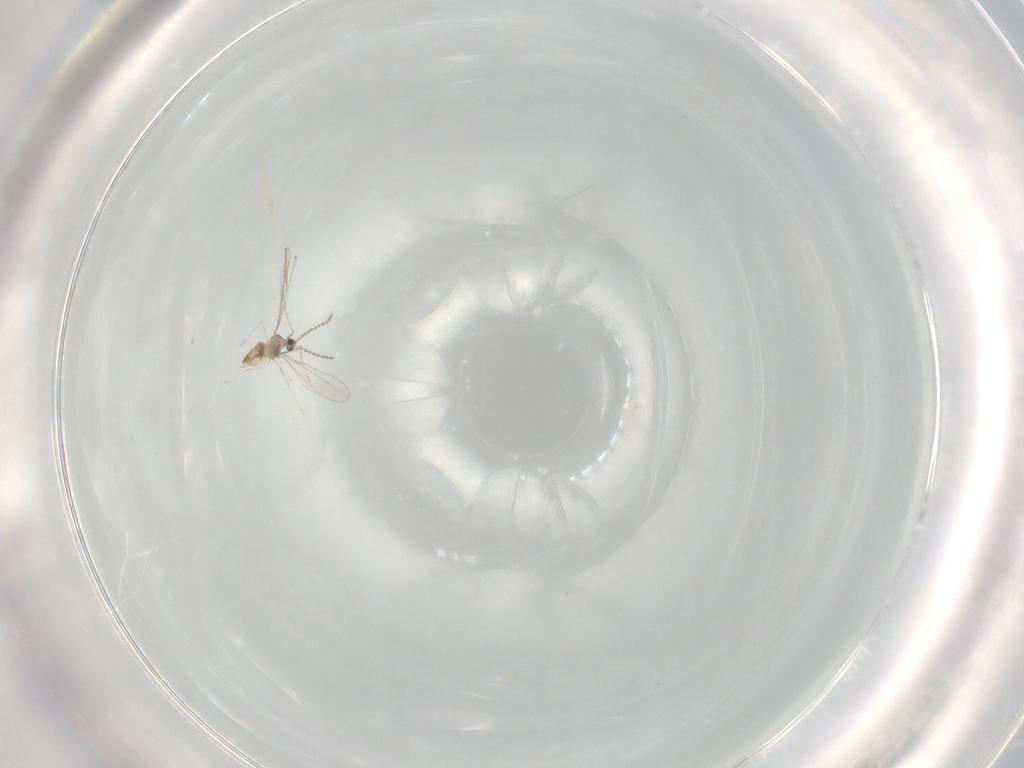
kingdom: Animalia
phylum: Arthropoda
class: Insecta
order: Diptera
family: Cecidomyiidae
